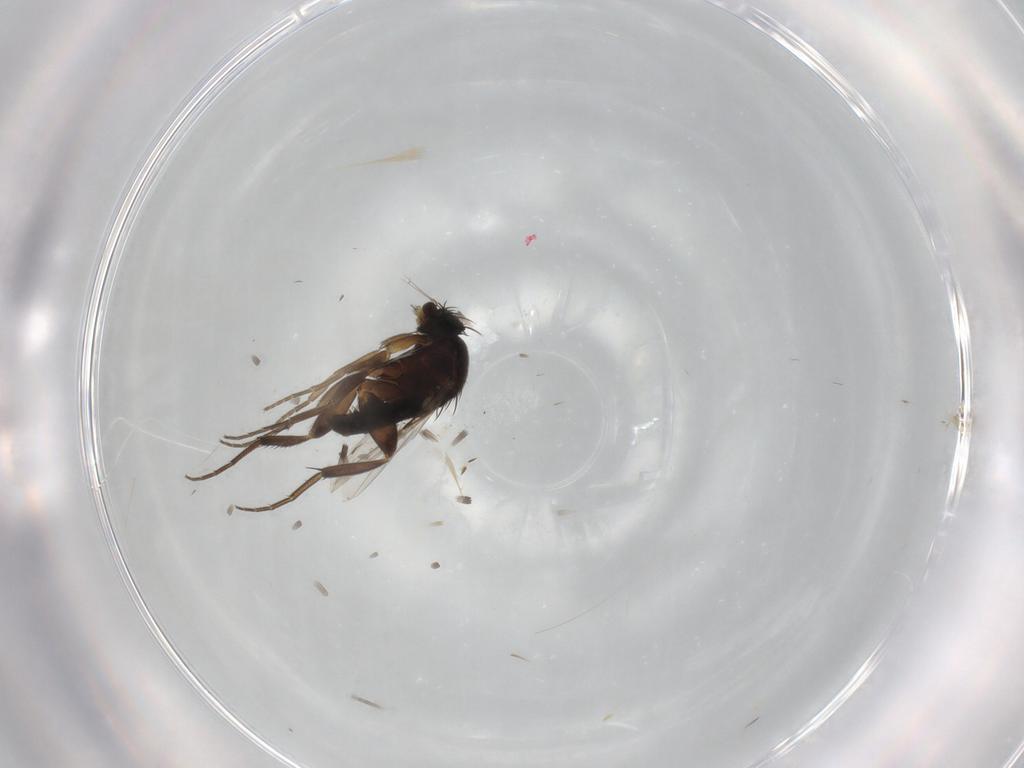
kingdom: Animalia
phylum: Arthropoda
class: Insecta
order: Diptera
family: Phoridae
